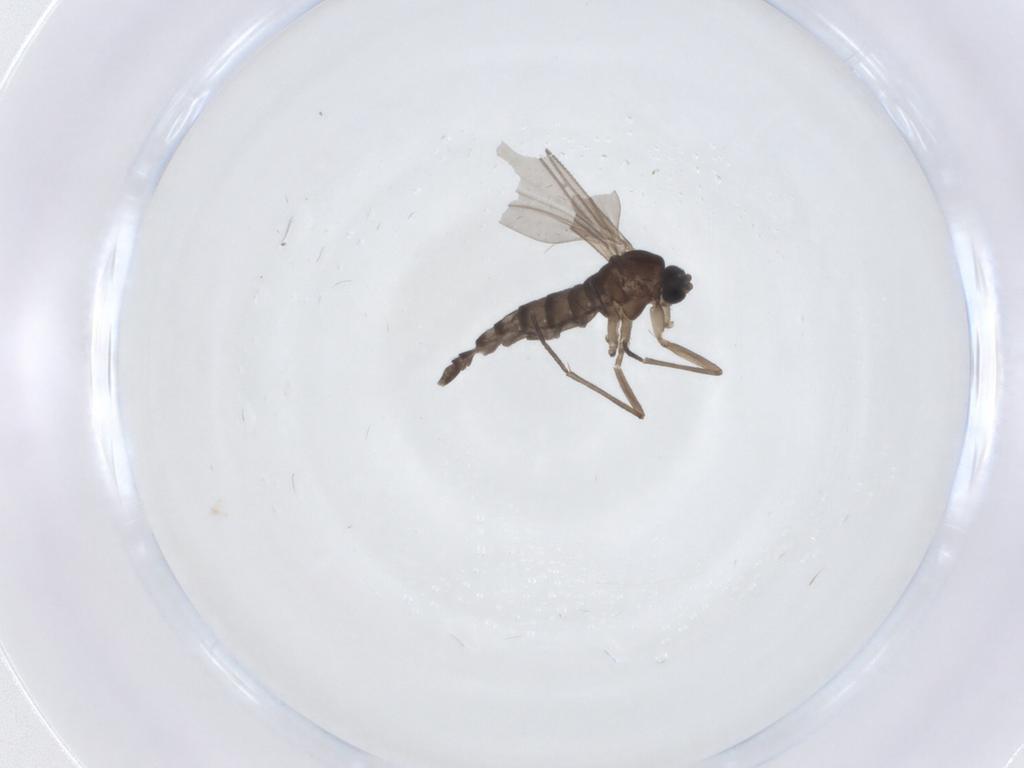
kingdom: Animalia
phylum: Arthropoda
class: Insecta
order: Diptera
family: Sciaridae
